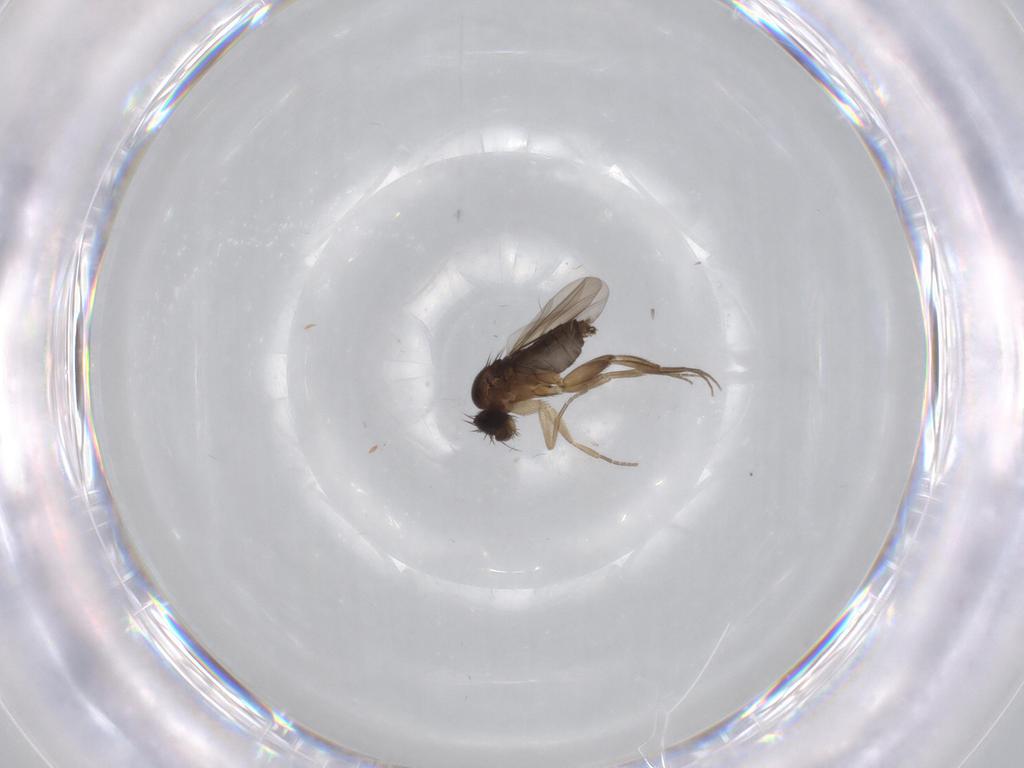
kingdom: Animalia
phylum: Arthropoda
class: Insecta
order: Diptera
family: Phoridae
